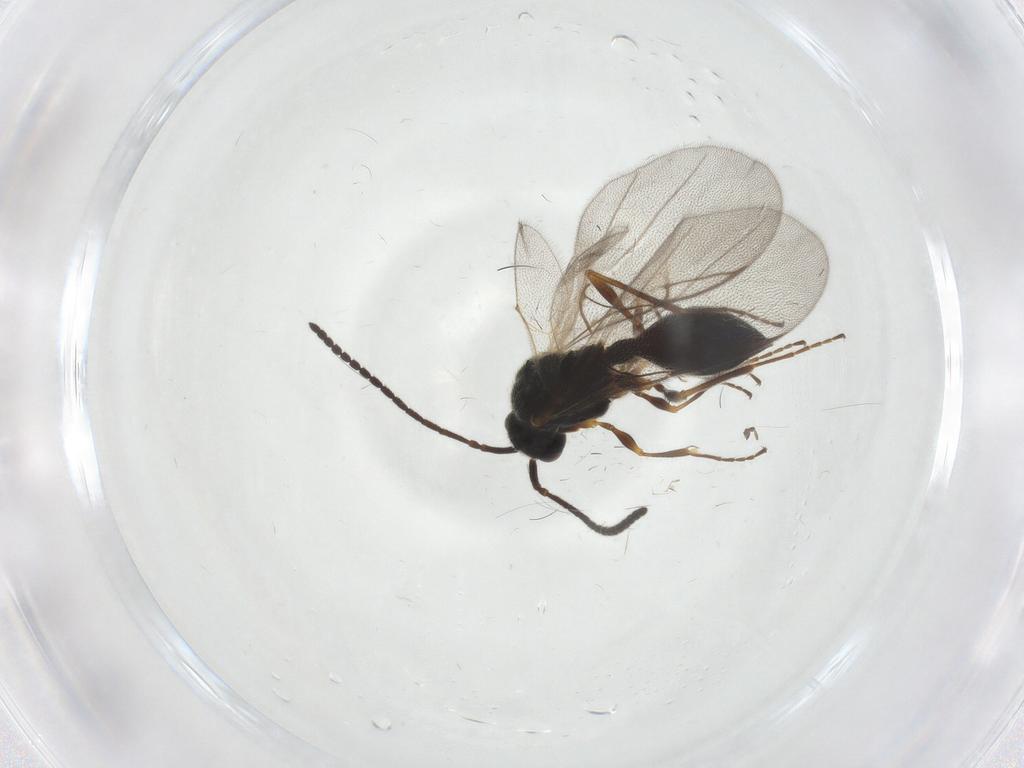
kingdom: Animalia
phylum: Arthropoda
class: Insecta
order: Hymenoptera
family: Diapriidae
